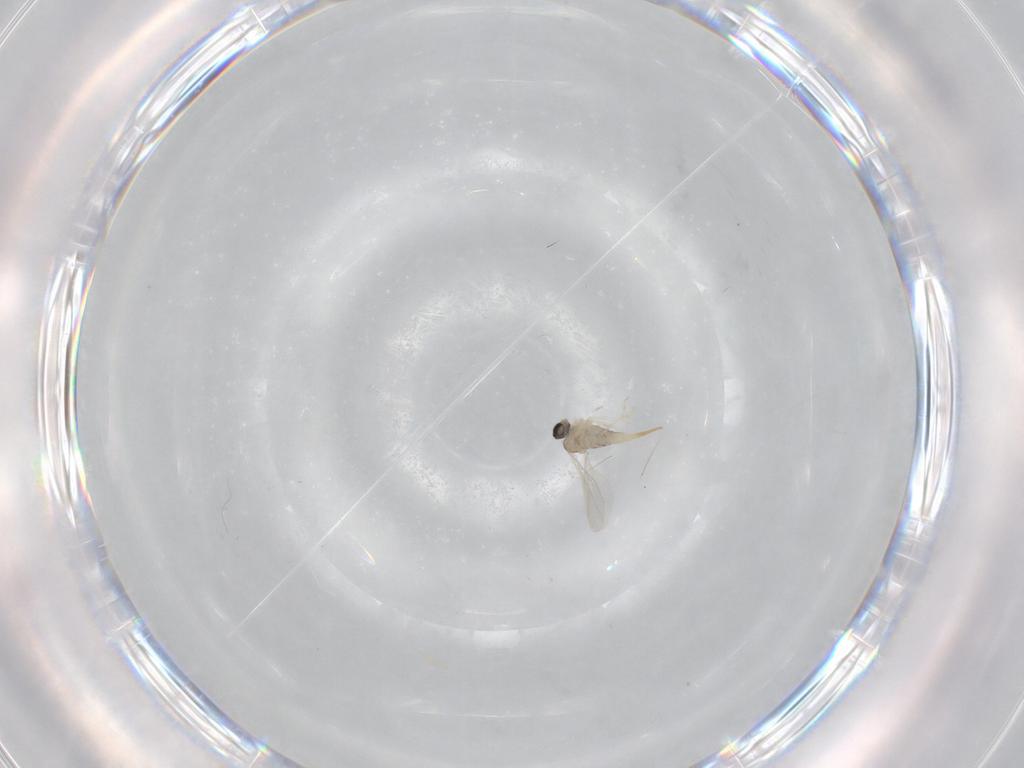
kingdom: Animalia
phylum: Arthropoda
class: Insecta
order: Diptera
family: Cecidomyiidae
